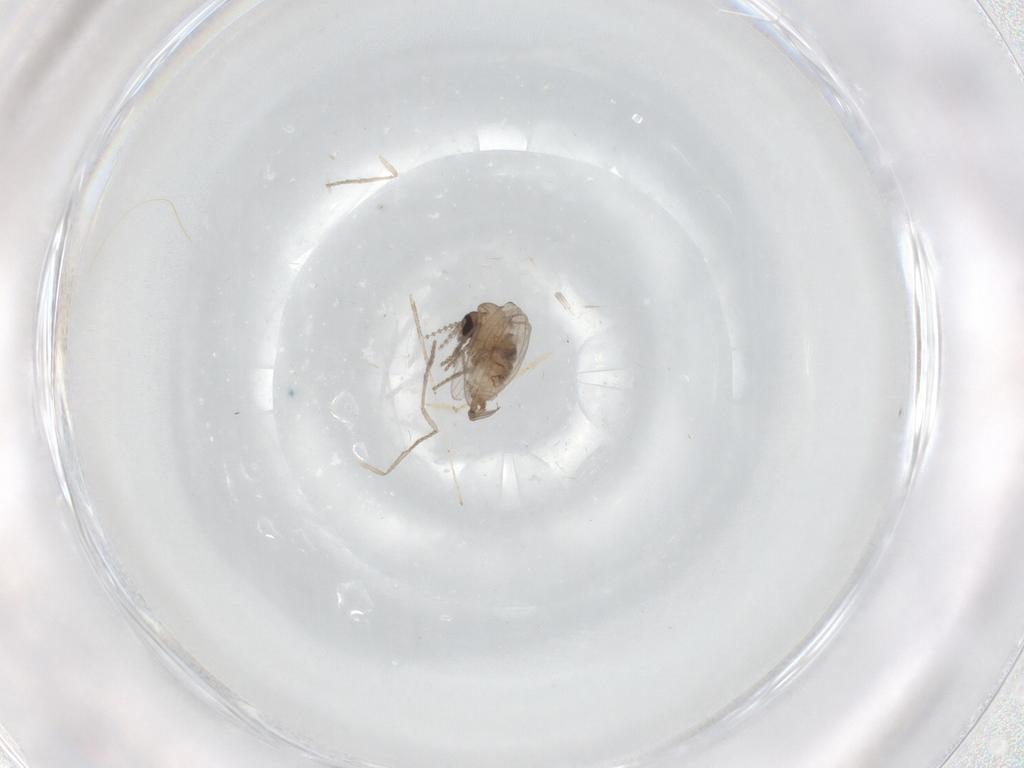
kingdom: Animalia
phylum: Arthropoda
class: Insecta
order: Diptera
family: Psychodidae
